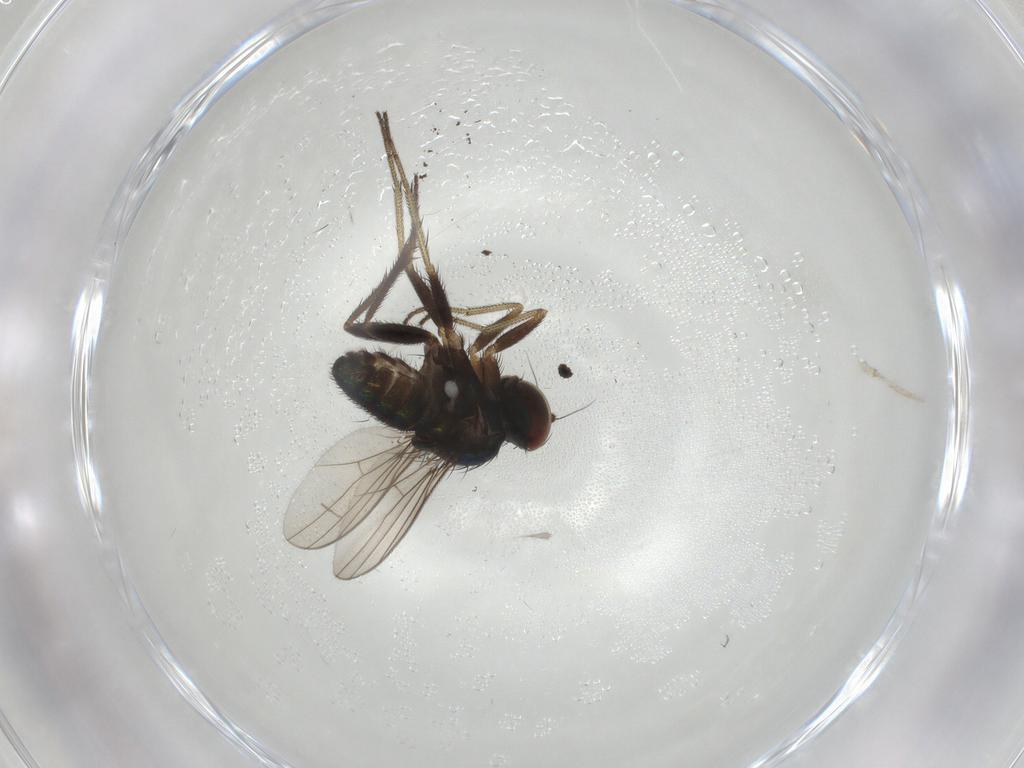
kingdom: Animalia
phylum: Arthropoda
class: Insecta
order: Diptera
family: Dolichopodidae
